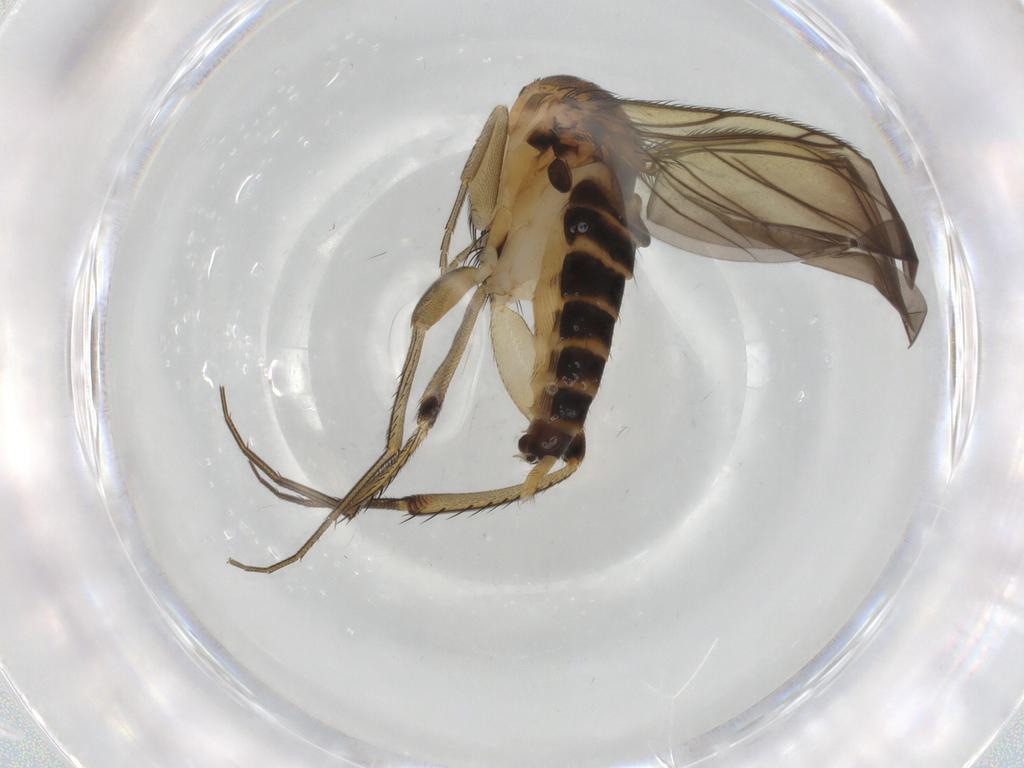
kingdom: Animalia
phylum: Arthropoda
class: Insecta
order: Diptera
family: Phoridae
